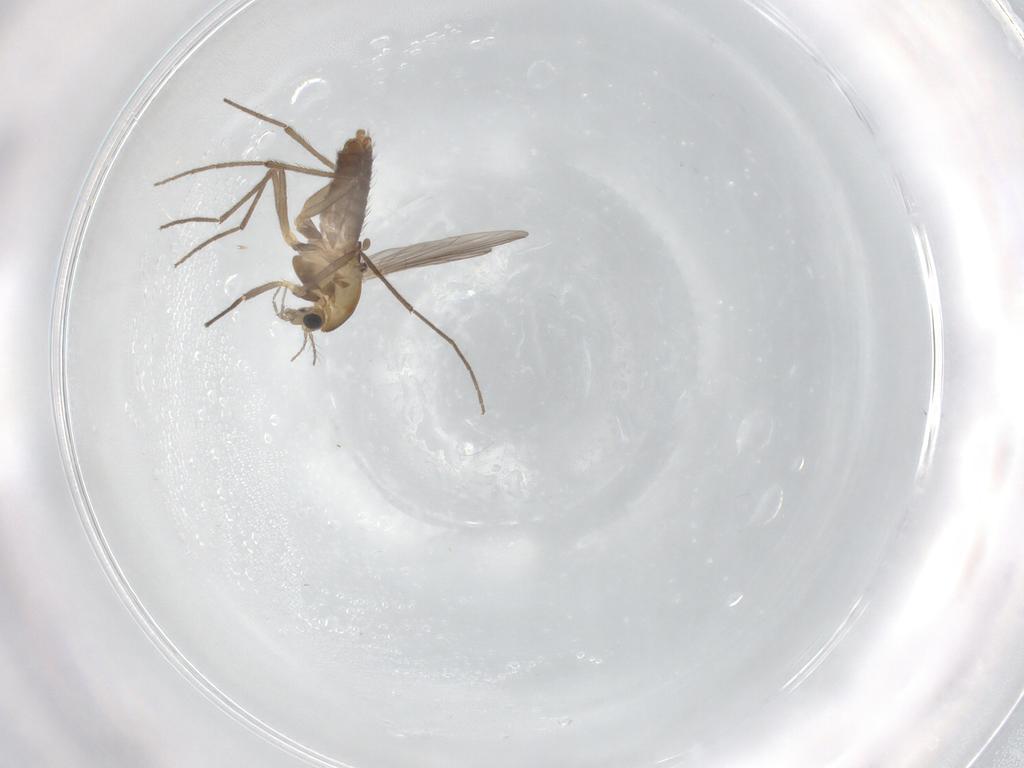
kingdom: Animalia
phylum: Arthropoda
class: Insecta
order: Diptera
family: Chironomidae
